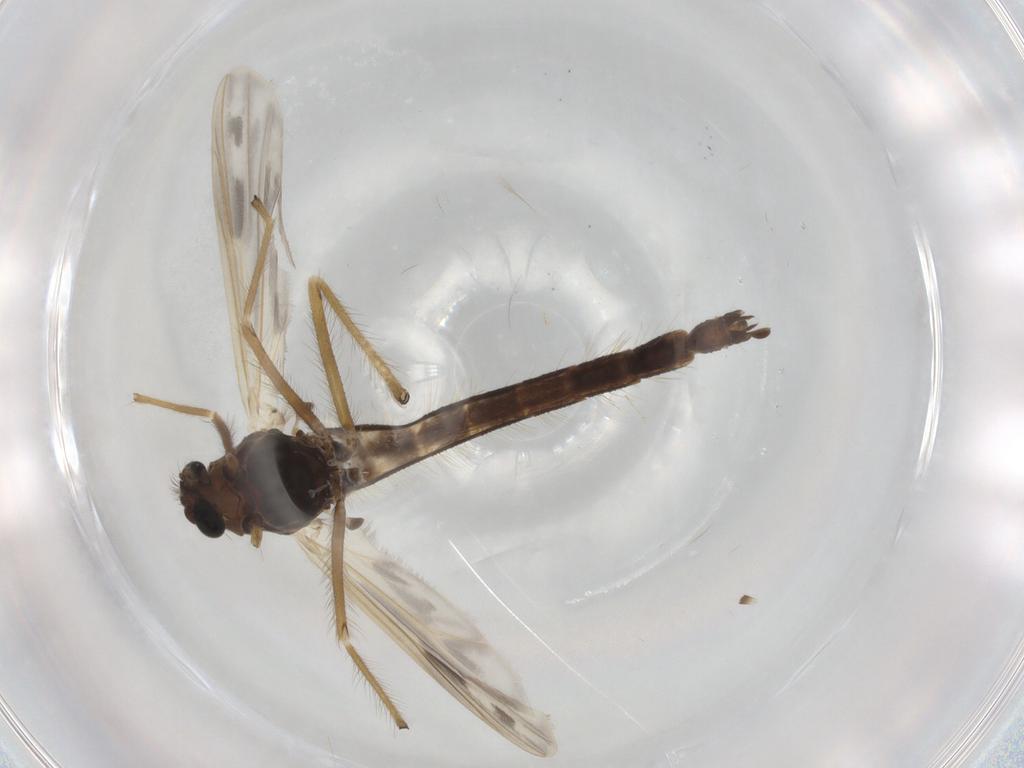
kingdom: Animalia
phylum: Arthropoda
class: Insecta
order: Diptera
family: Chironomidae
